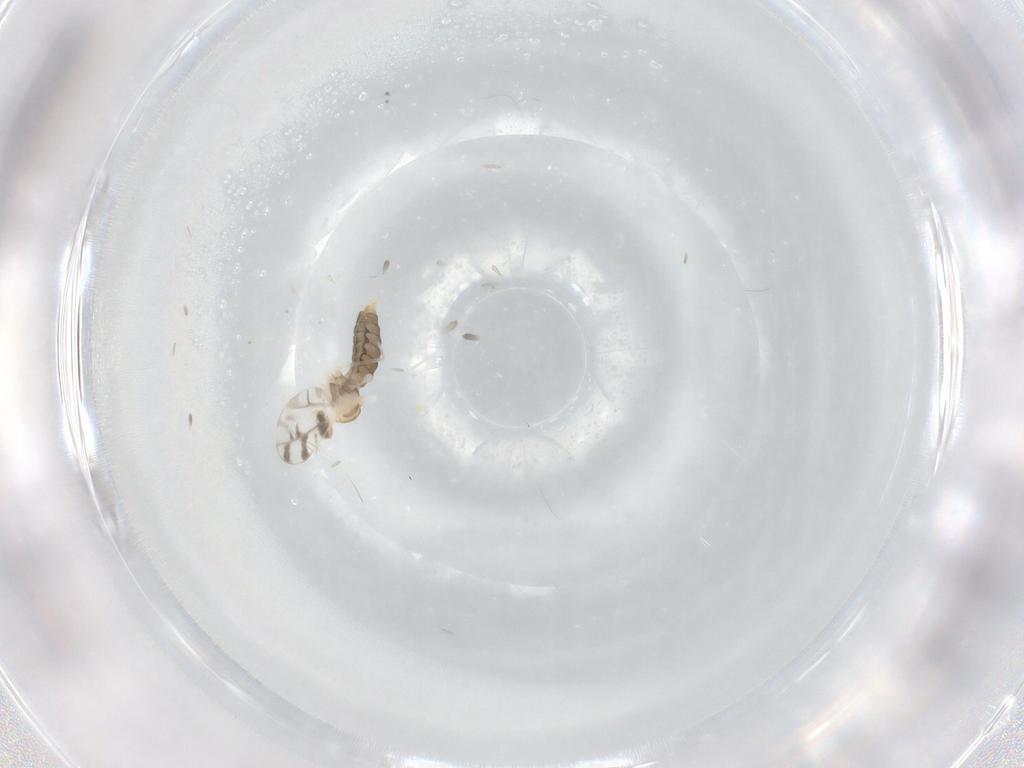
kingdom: Animalia
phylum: Arthropoda
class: Insecta
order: Diptera
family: Cecidomyiidae
